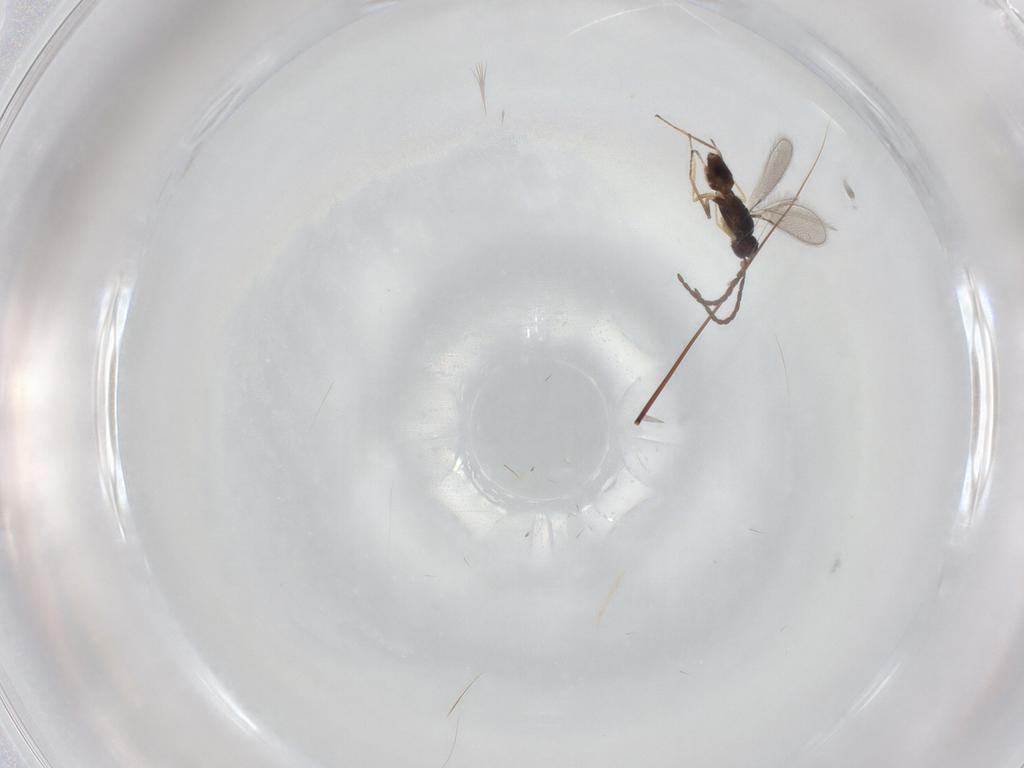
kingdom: Animalia
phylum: Arthropoda
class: Insecta
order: Hymenoptera
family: Mymaridae
